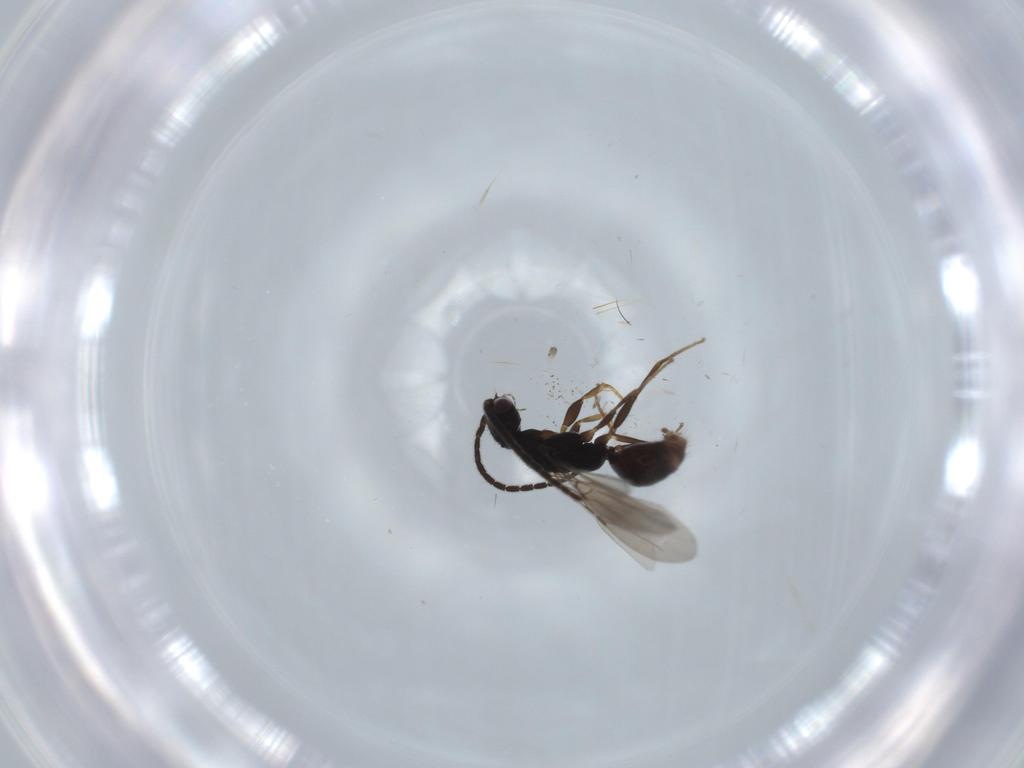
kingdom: Animalia
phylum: Arthropoda
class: Insecta
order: Hymenoptera
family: Bethylidae
